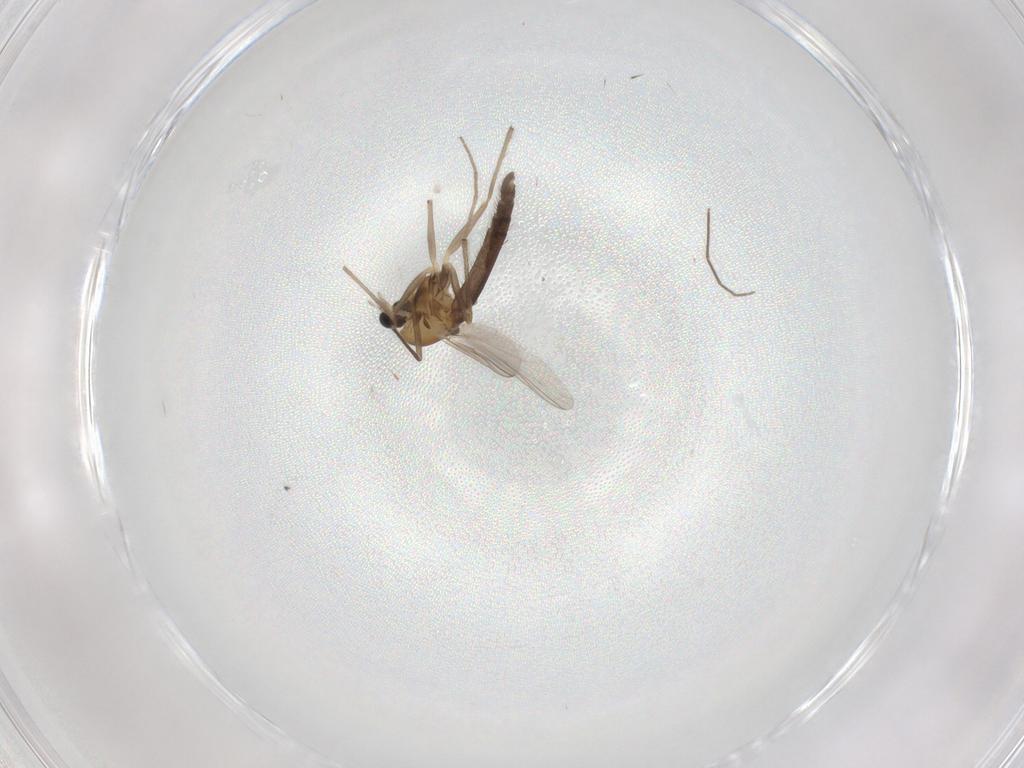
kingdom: Animalia
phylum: Arthropoda
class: Insecta
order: Diptera
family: Chironomidae
